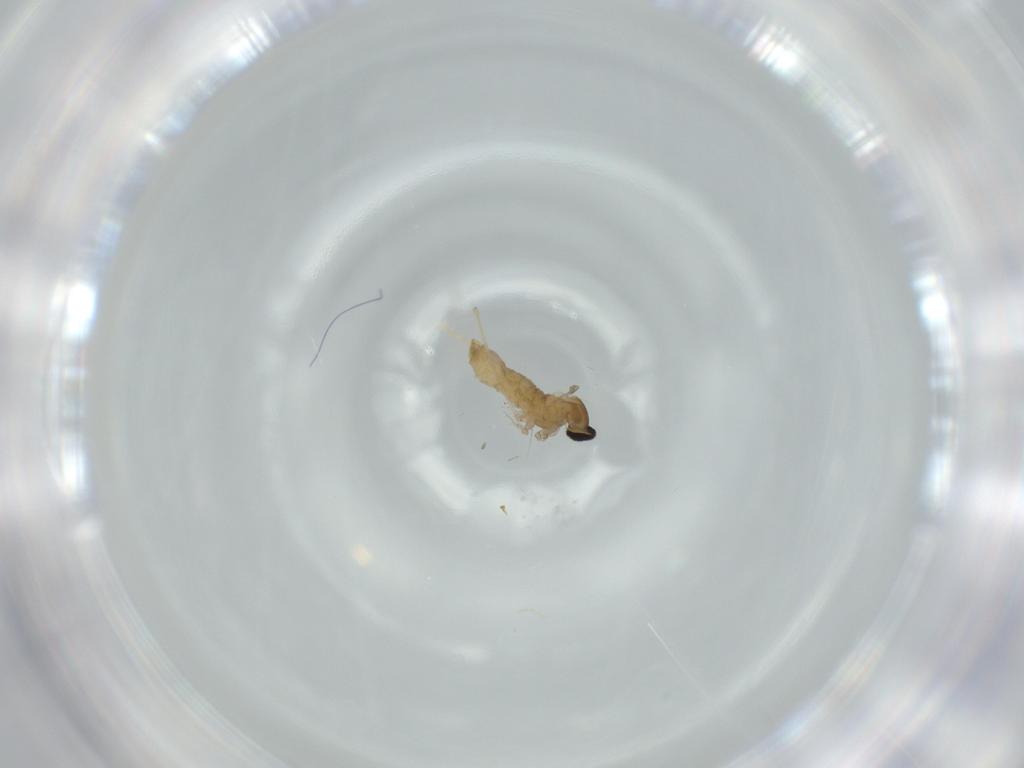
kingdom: Animalia
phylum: Arthropoda
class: Insecta
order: Diptera
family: Cecidomyiidae
